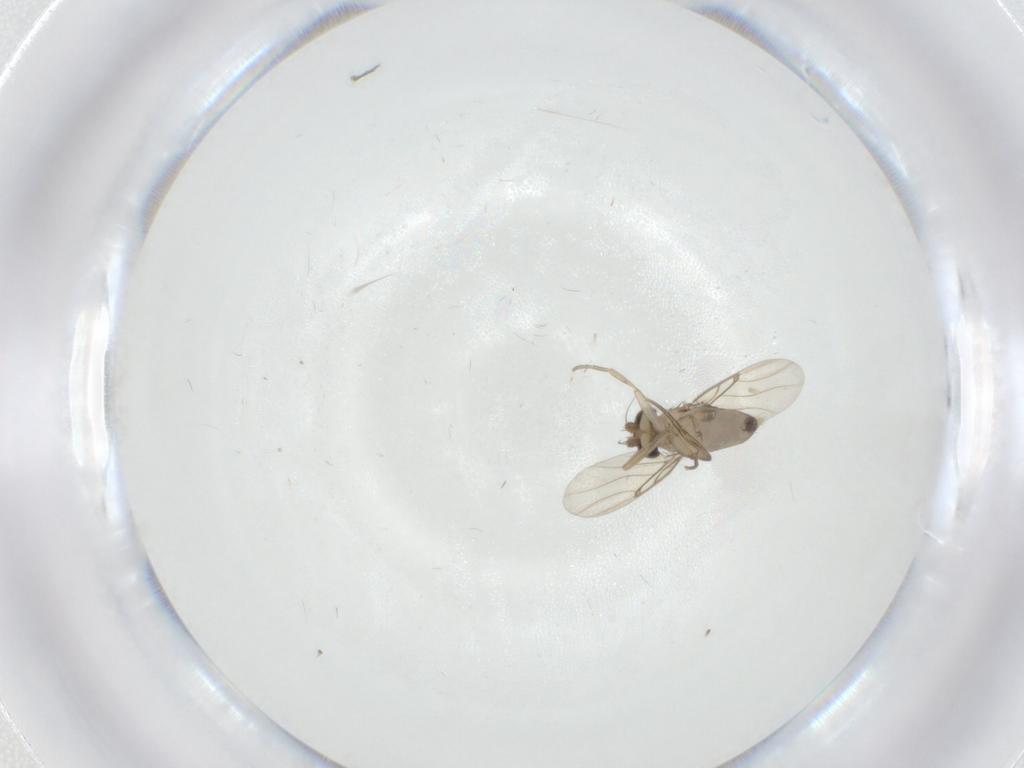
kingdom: Animalia
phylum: Arthropoda
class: Insecta
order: Diptera
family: Phoridae
